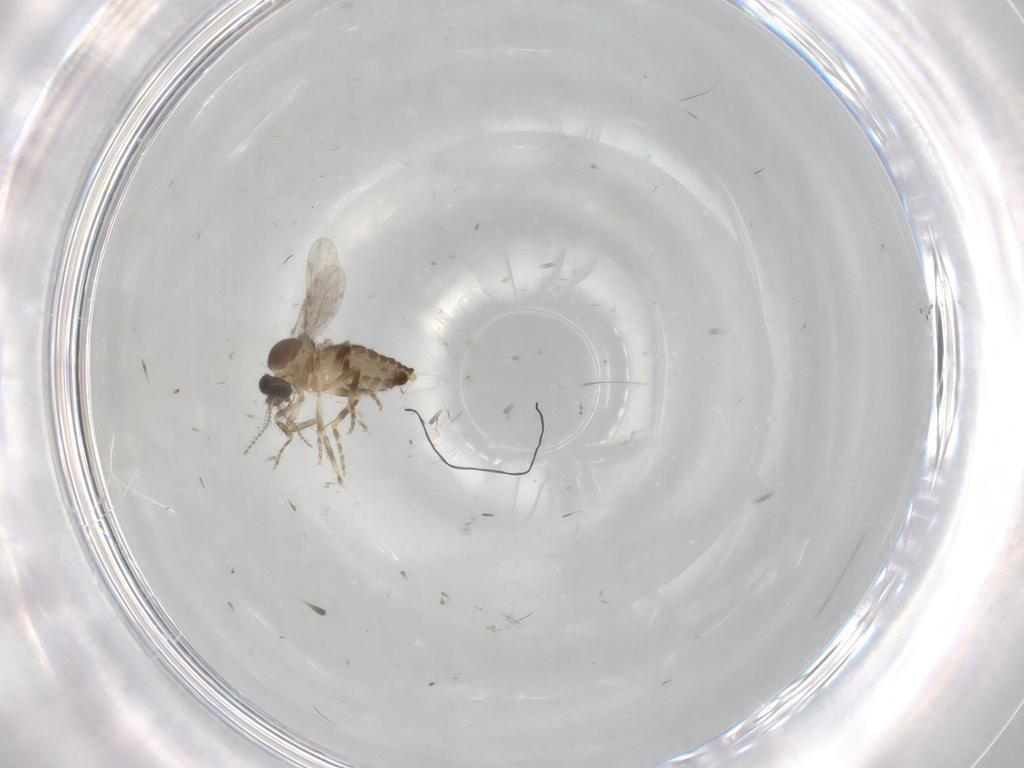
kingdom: Animalia
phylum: Arthropoda
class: Insecta
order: Diptera
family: Ceratopogonidae
